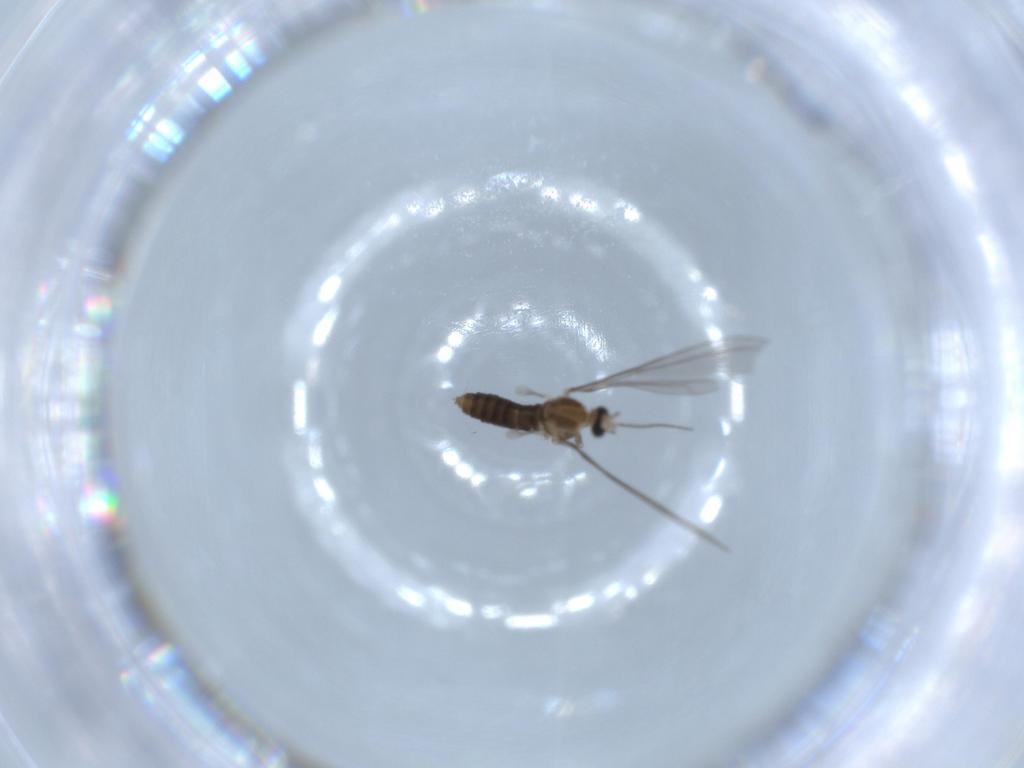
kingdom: Animalia
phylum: Arthropoda
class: Insecta
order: Diptera
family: Cecidomyiidae
